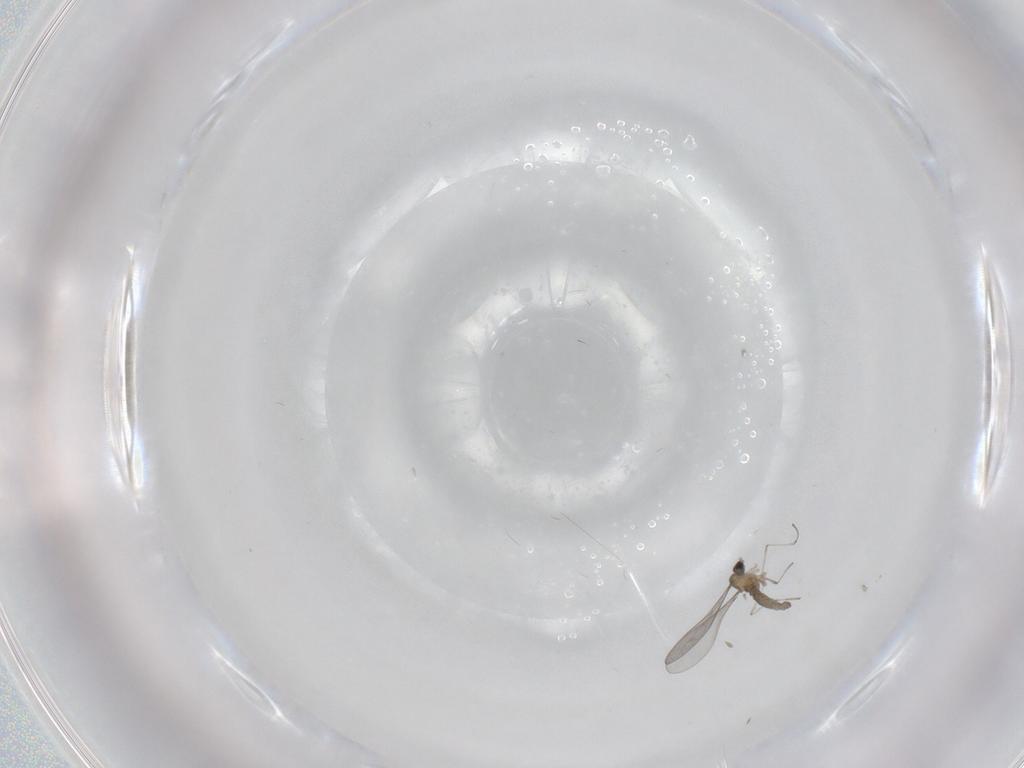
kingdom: Animalia
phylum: Arthropoda
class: Insecta
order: Diptera
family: Cecidomyiidae
